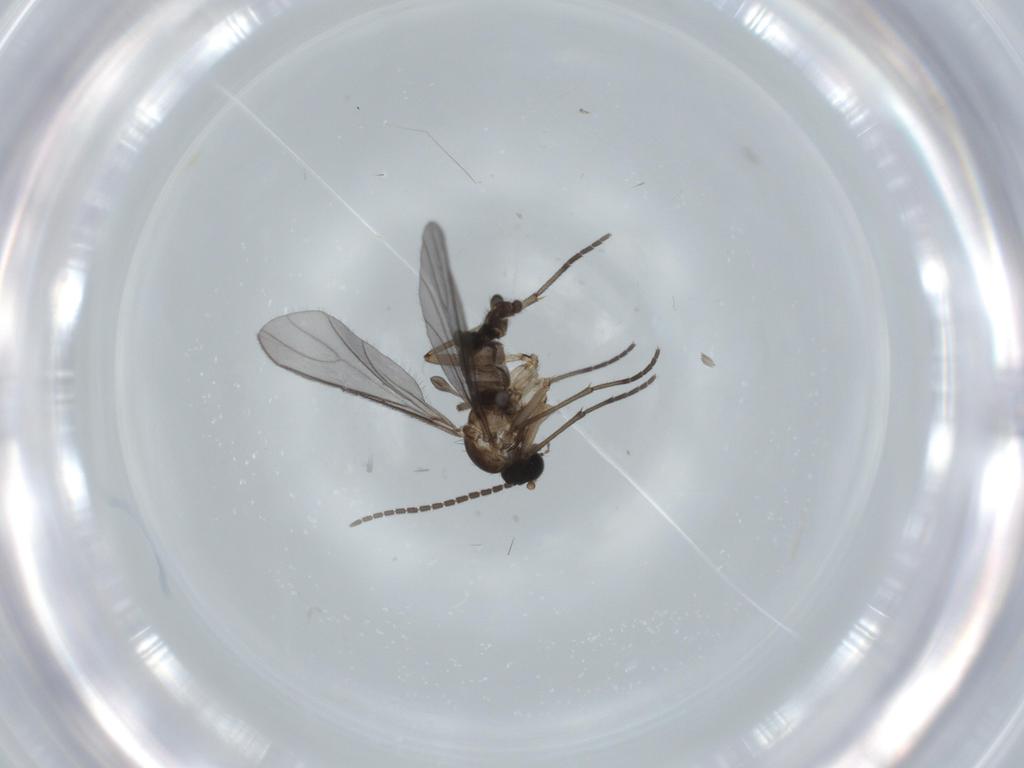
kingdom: Animalia
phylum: Arthropoda
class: Insecta
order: Diptera
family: Sciaridae
